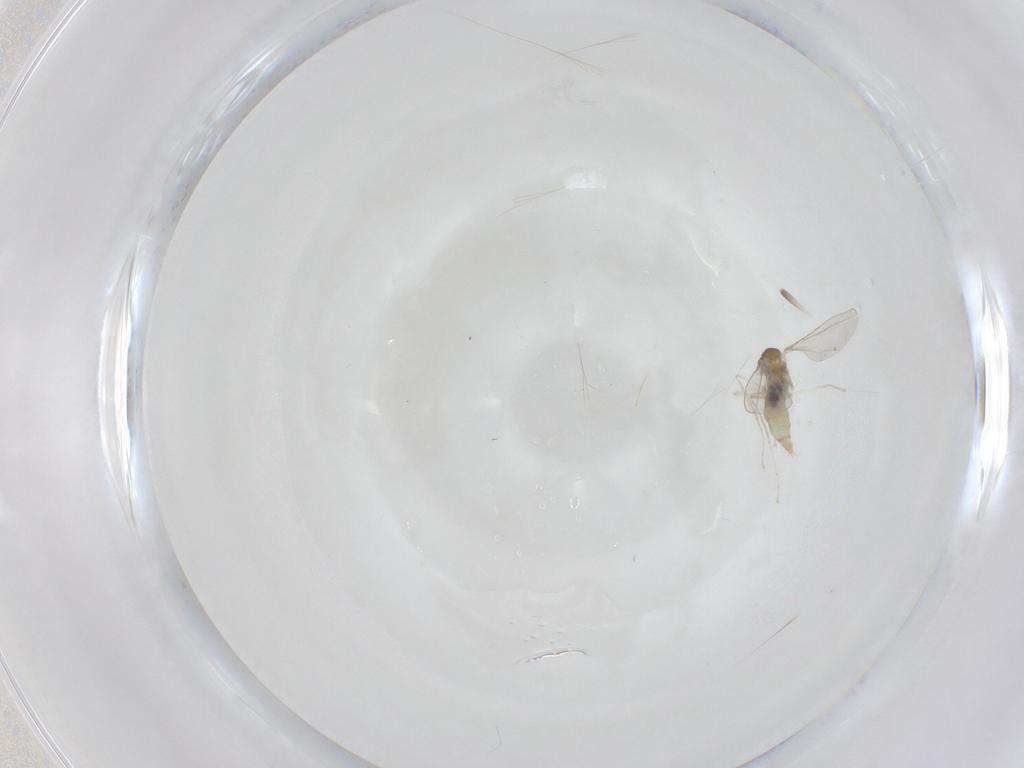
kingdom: Animalia
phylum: Arthropoda
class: Insecta
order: Diptera
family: Cecidomyiidae
